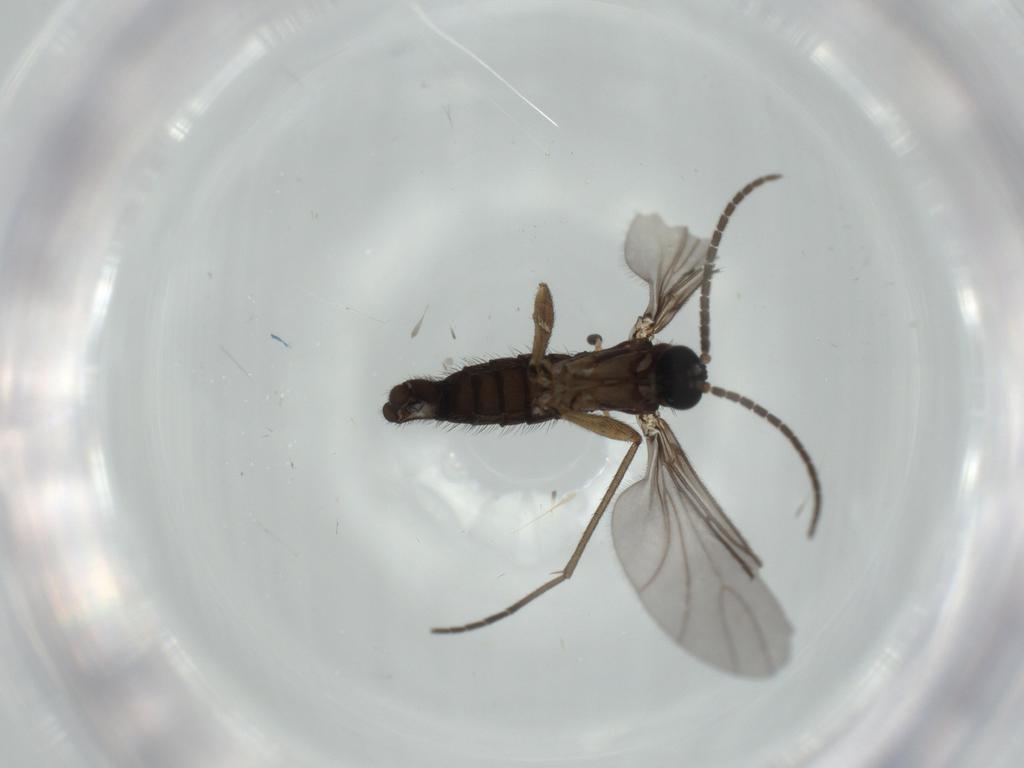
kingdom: Animalia
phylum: Arthropoda
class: Insecta
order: Diptera
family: Sciaridae
